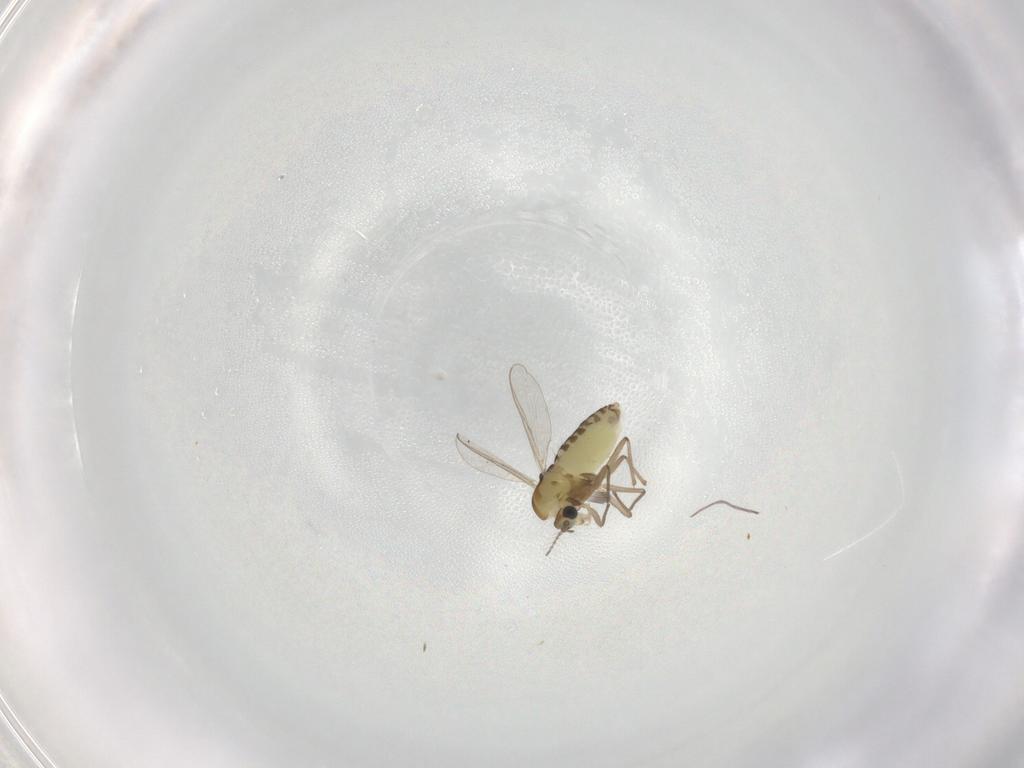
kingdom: Animalia
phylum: Arthropoda
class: Insecta
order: Diptera
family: Chironomidae
